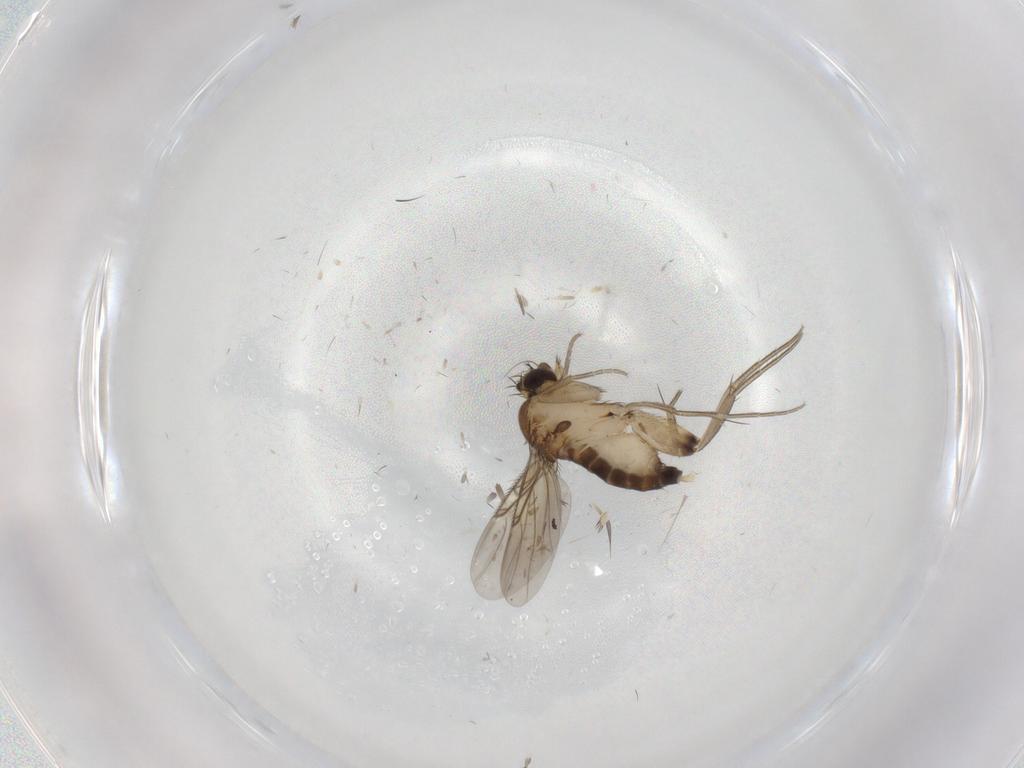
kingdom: Animalia
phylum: Arthropoda
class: Insecta
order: Diptera
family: Phoridae
